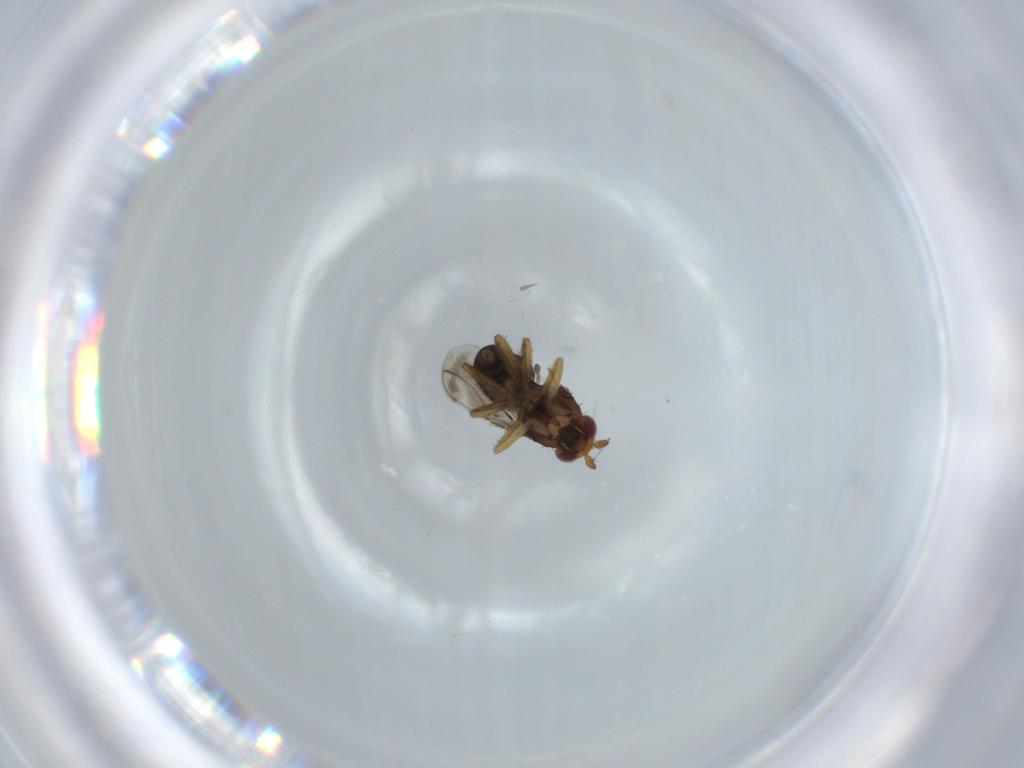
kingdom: Animalia
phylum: Arthropoda
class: Insecta
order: Diptera
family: Sphaeroceridae
